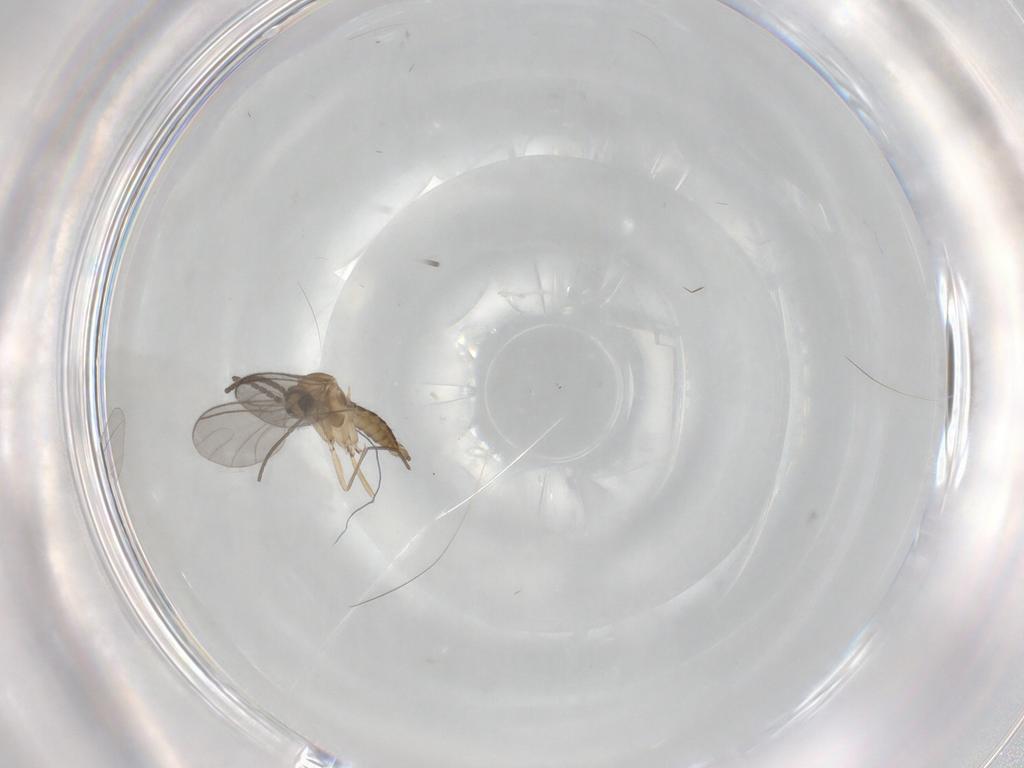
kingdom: Animalia
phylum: Arthropoda
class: Insecta
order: Diptera
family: Sciaridae
